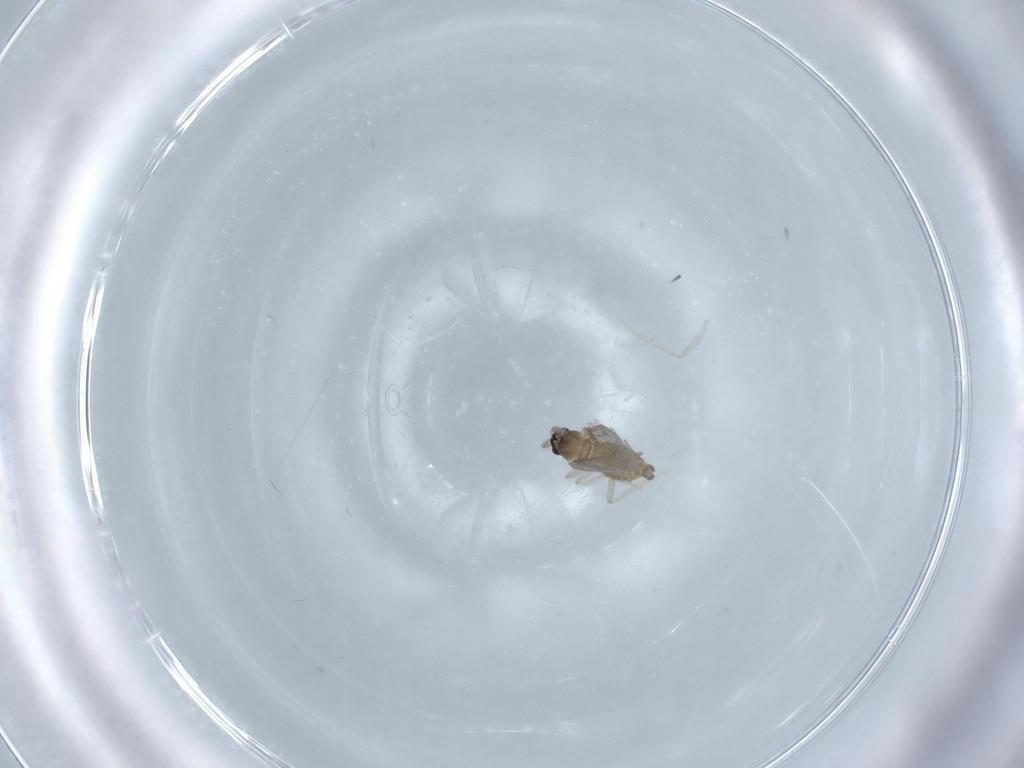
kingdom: Animalia
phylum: Arthropoda
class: Insecta
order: Diptera
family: Cecidomyiidae
